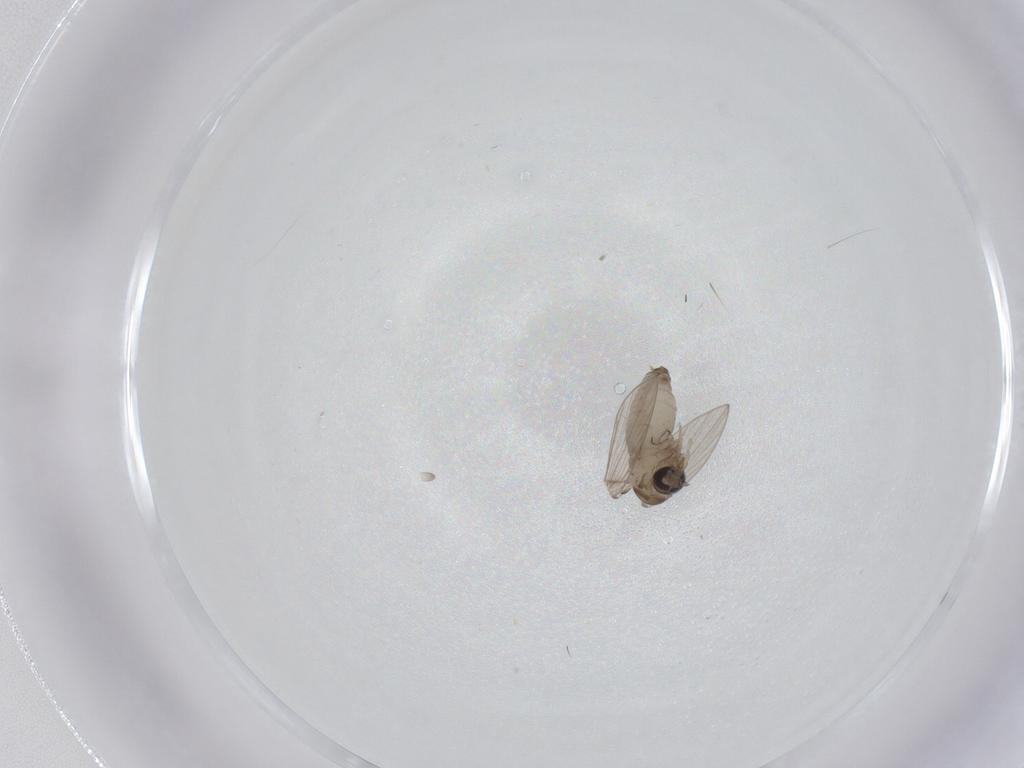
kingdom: Animalia
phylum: Arthropoda
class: Insecta
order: Diptera
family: Psychodidae
